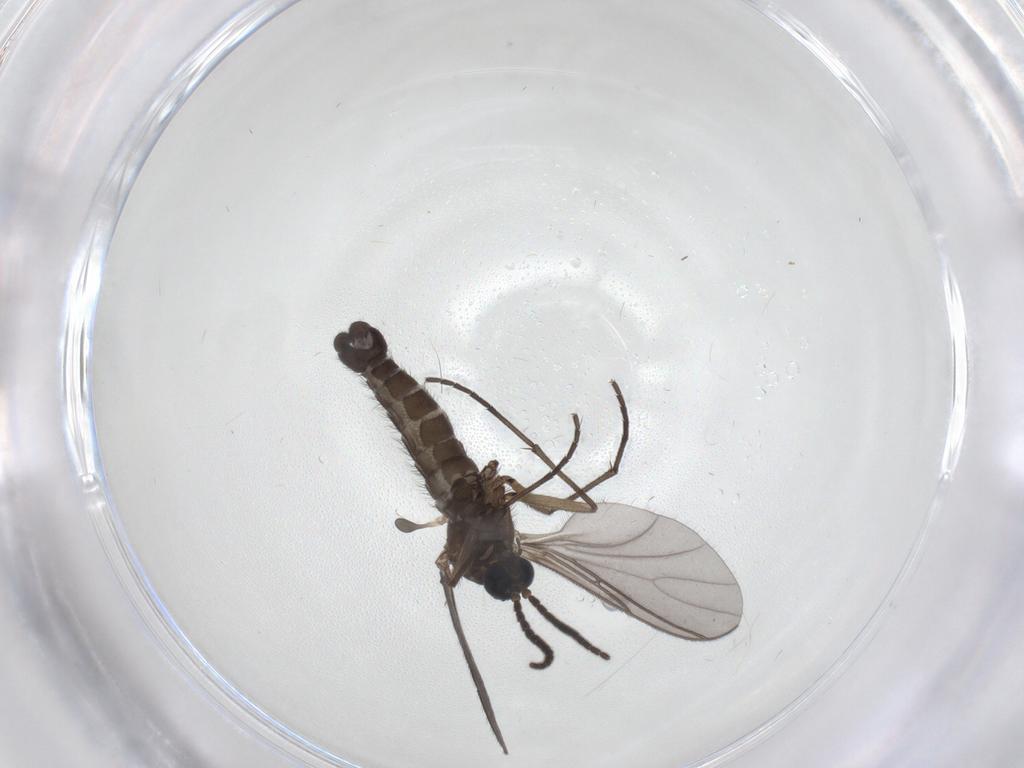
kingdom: Animalia
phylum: Arthropoda
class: Insecta
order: Diptera
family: Sciaridae
